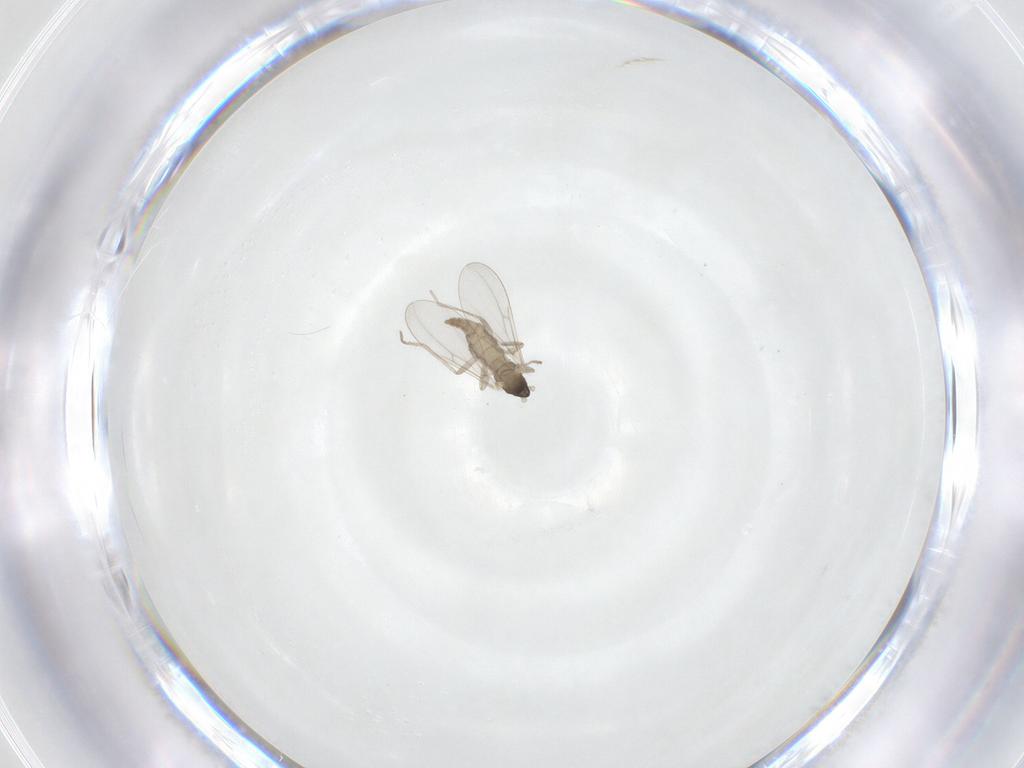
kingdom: Animalia
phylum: Arthropoda
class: Insecta
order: Diptera
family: Cecidomyiidae
